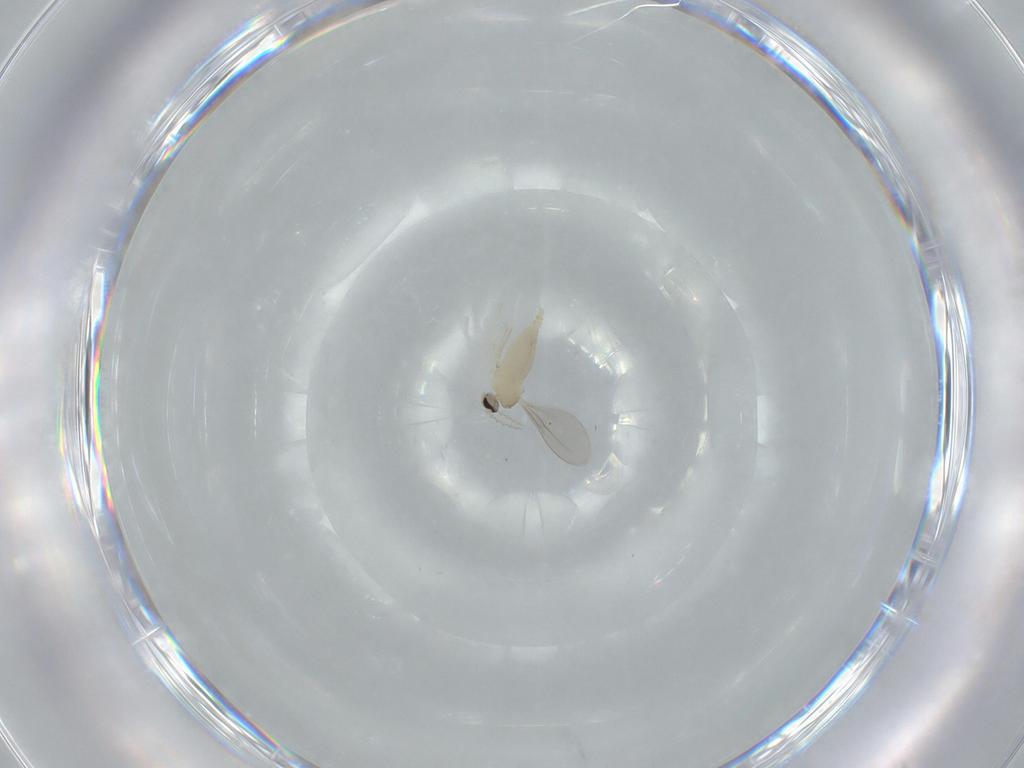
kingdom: Animalia
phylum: Arthropoda
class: Insecta
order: Diptera
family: Cecidomyiidae
